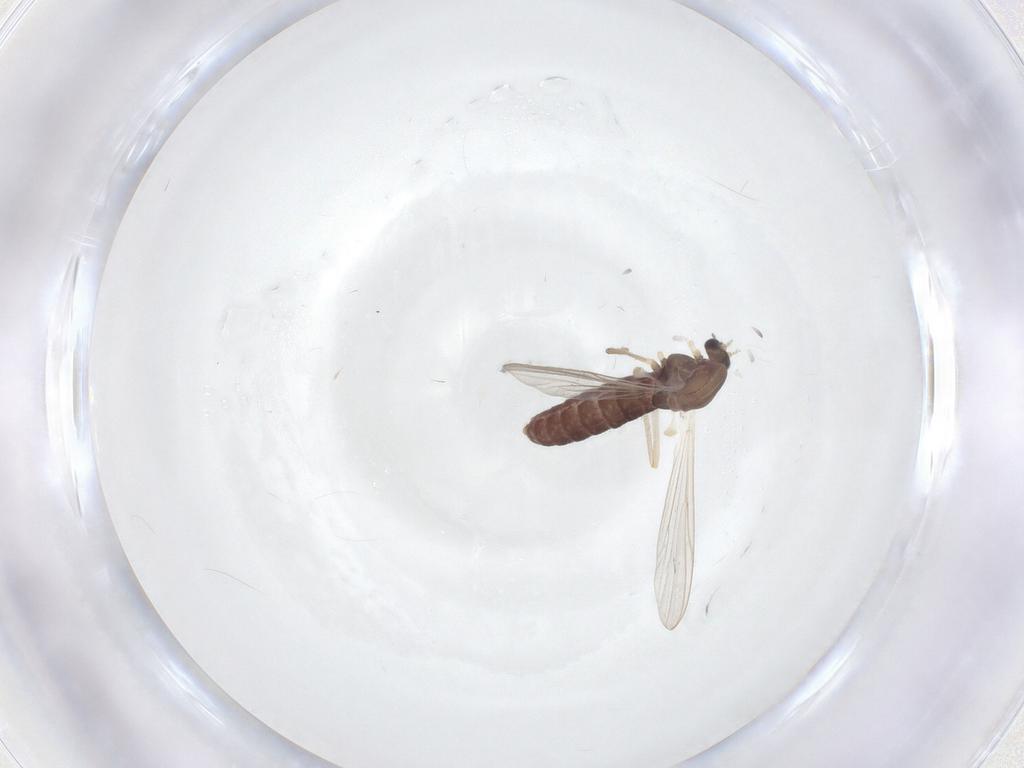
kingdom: Animalia
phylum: Arthropoda
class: Insecta
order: Diptera
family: Chironomidae
